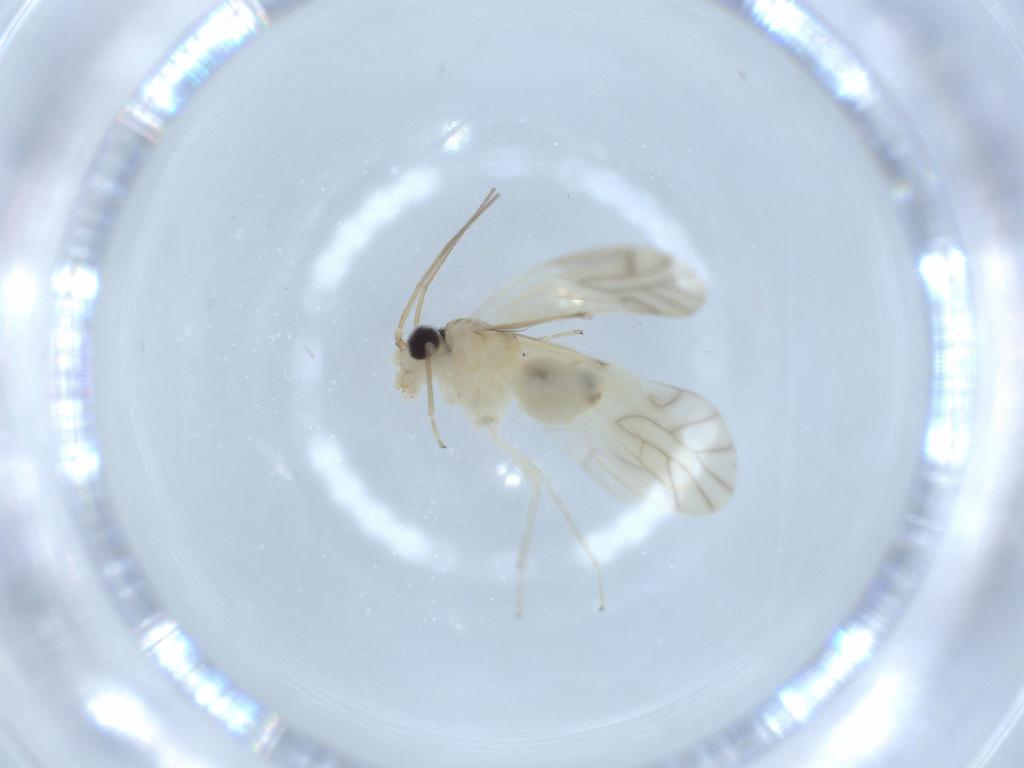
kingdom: Animalia
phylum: Arthropoda
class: Insecta
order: Psocodea
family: Caeciliusidae
